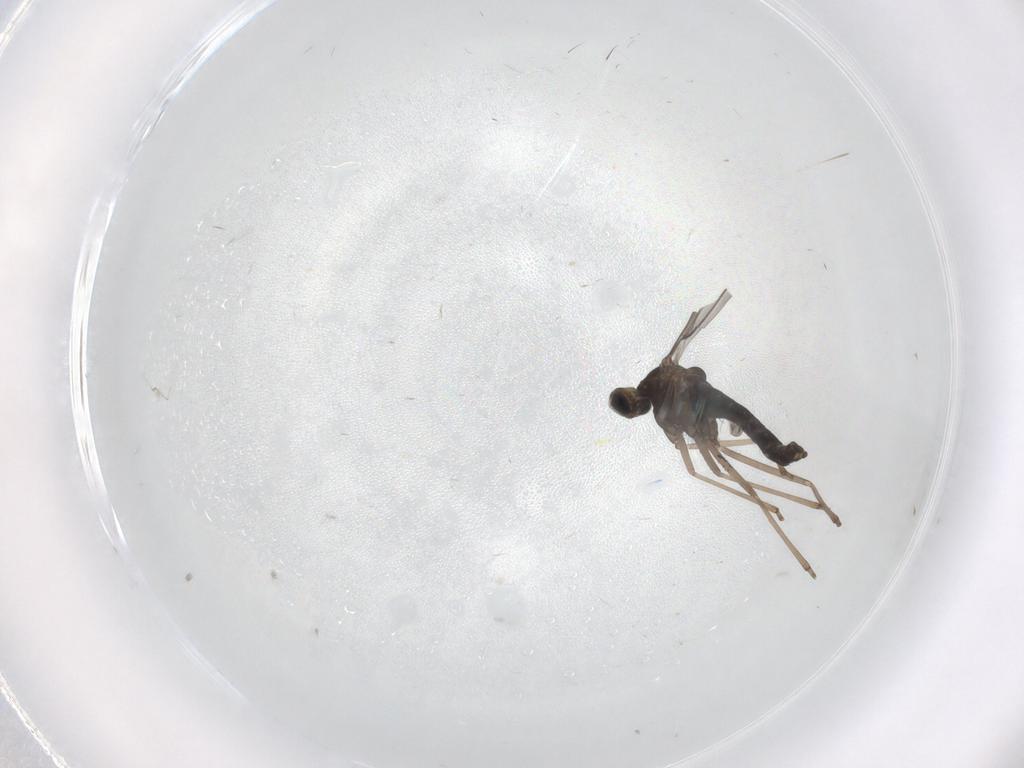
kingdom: Animalia
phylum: Arthropoda
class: Insecta
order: Diptera
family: Cecidomyiidae
